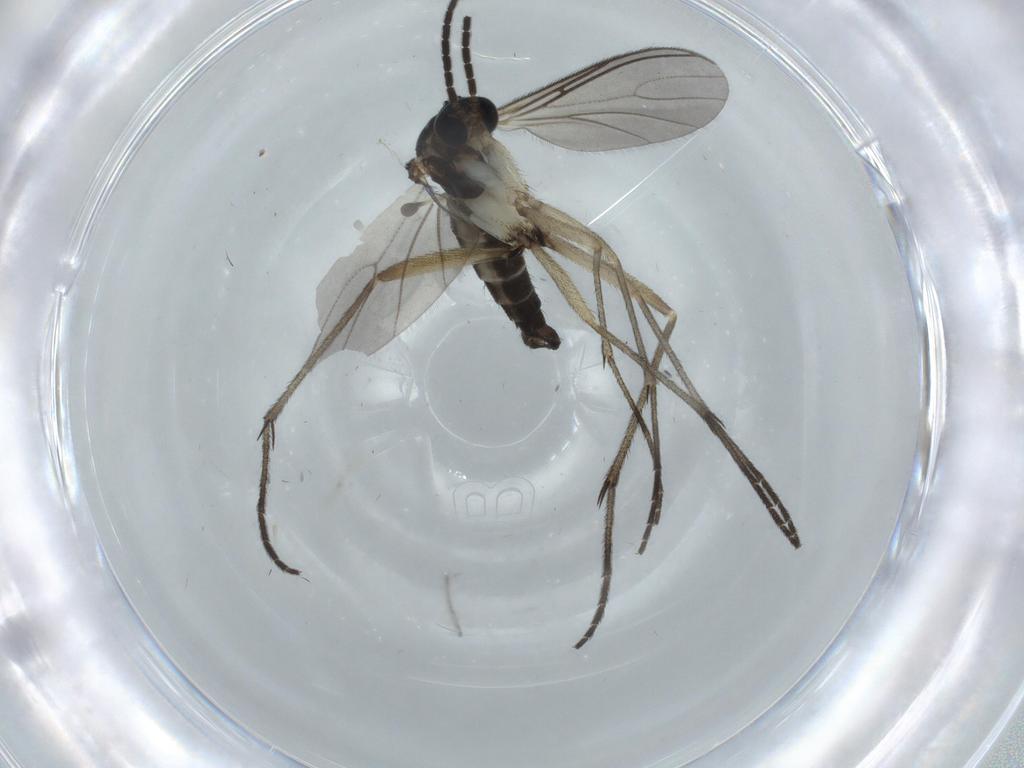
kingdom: Animalia
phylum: Arthropoda
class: Insecta
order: Diptera
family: Sciaridae
